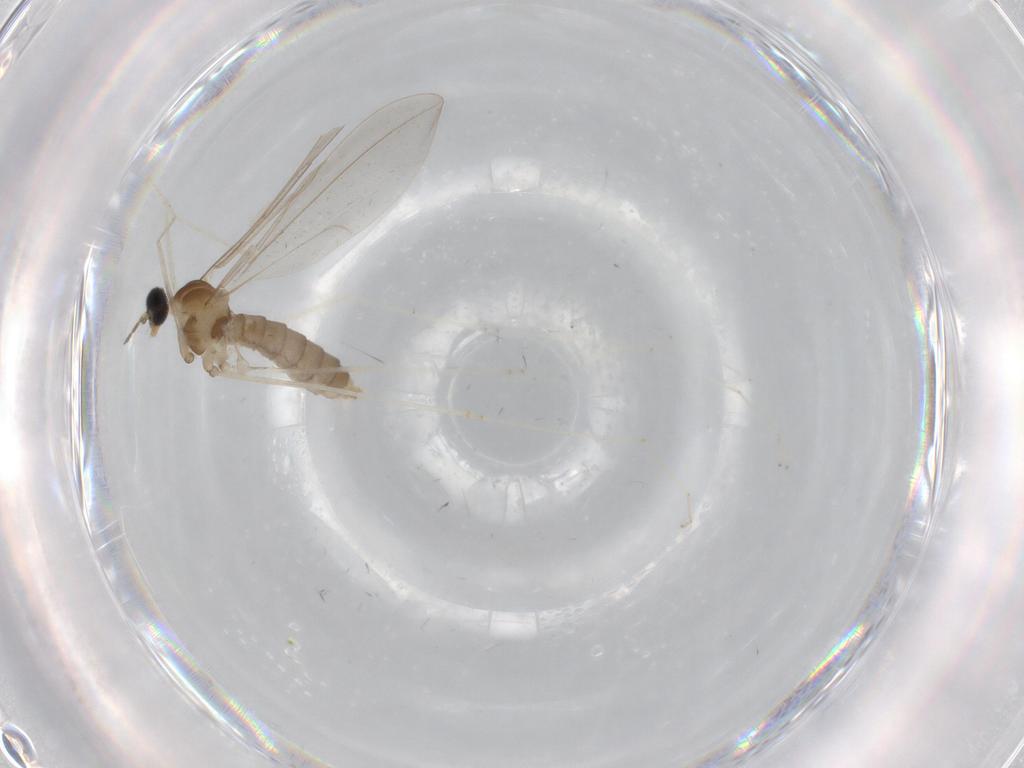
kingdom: Animalia
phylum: Arthropoda
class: Insecta
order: Diptera
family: Cecidomyiidae
